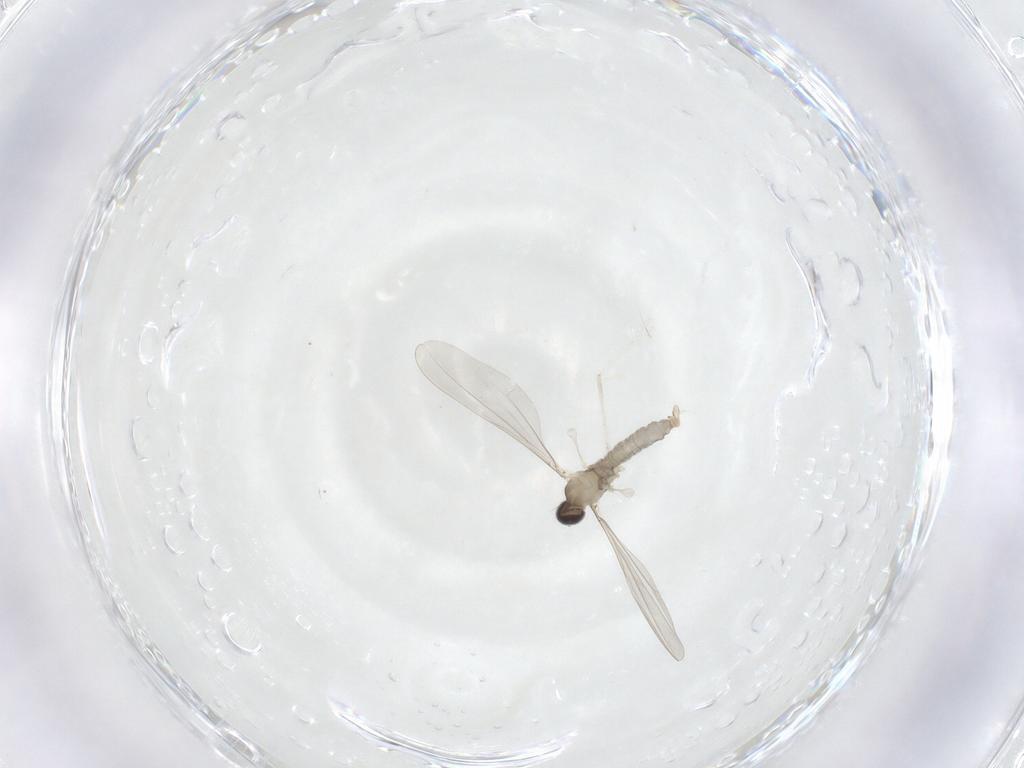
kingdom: Animalia
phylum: Arthropoda
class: Insecta
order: Diptera
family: Cecidomyiidae
